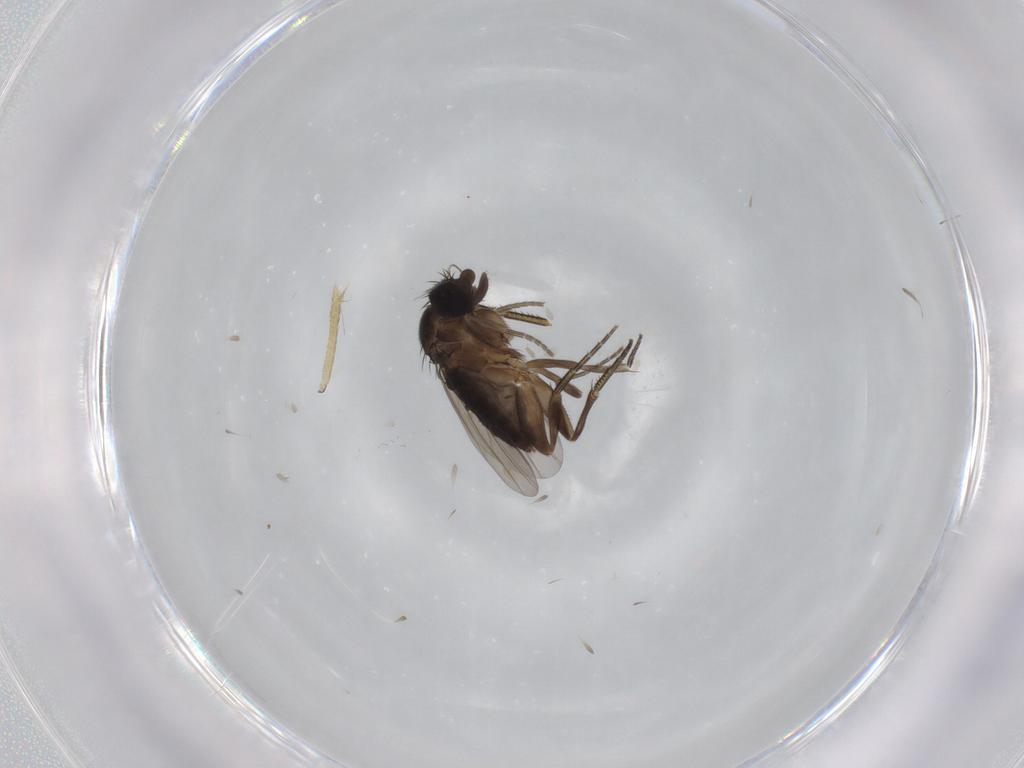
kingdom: Animalia
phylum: Arthropoda
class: Insecta
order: Diptera
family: Phoridae
